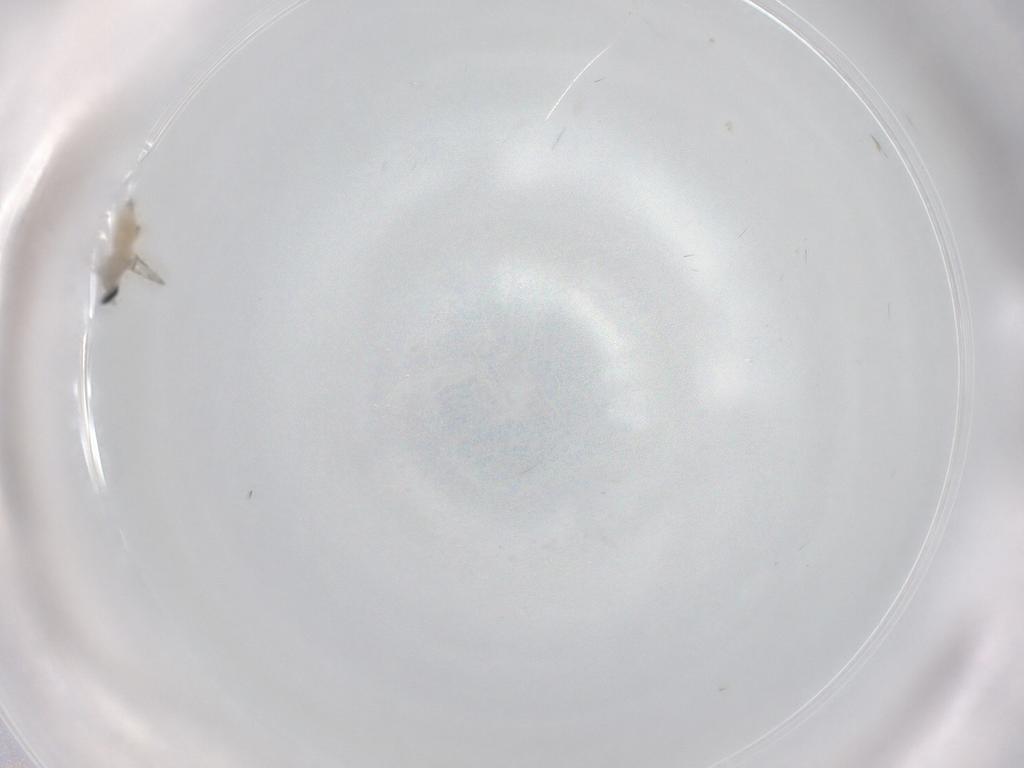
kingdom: Animalia
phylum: Arthropoda
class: Insecta
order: Diptera
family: Cecidomyiidae
